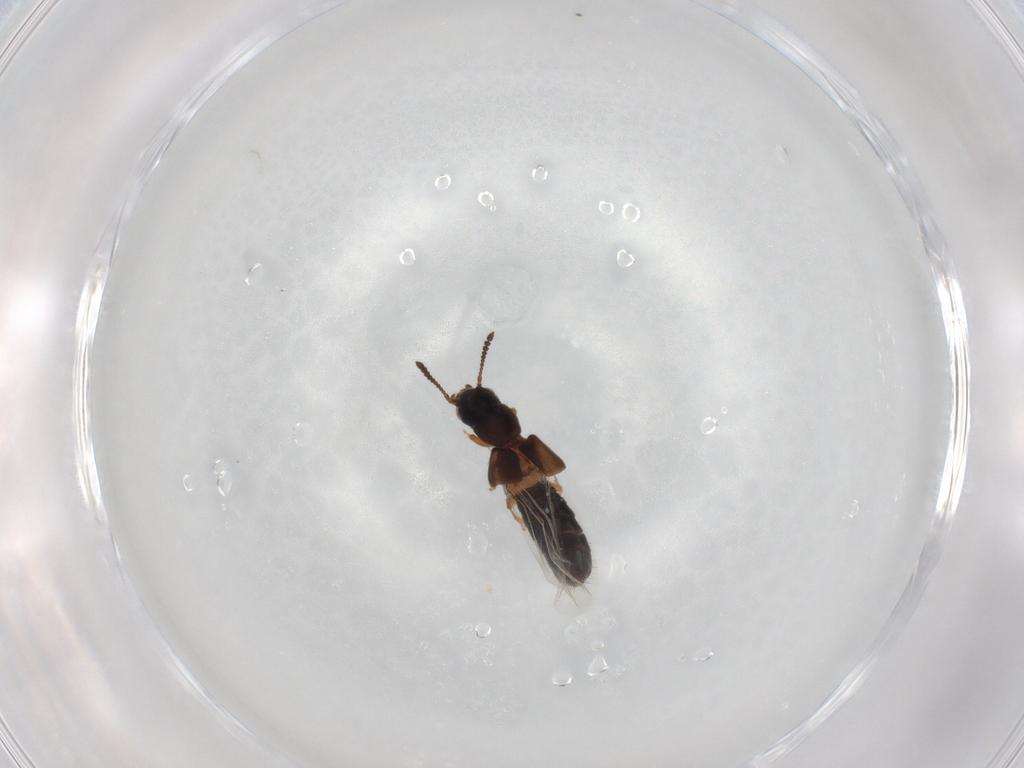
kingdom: Animalia
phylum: Arthropoda
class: Insecta
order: Coleoptera
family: Staphylinidae
